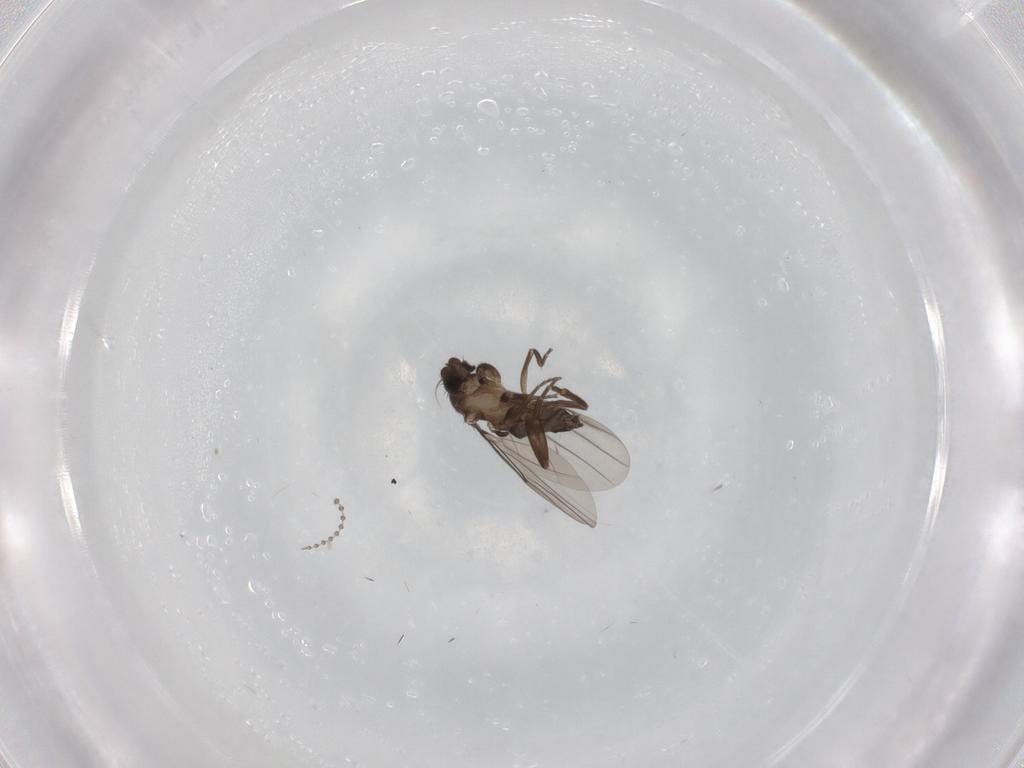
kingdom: Animalia
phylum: Arthropoda
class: Insecta
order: Diptera
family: Psychodidae
